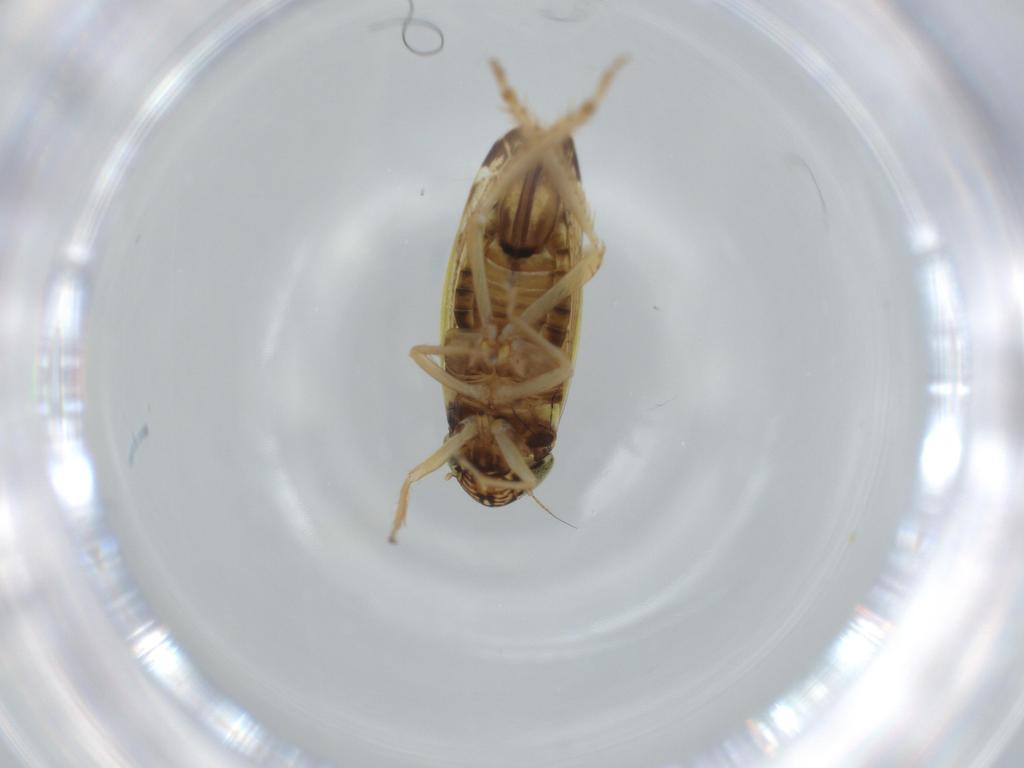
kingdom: Animalia
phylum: Arthropoda
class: Insecta
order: Hemiptera
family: Cicadellidae
